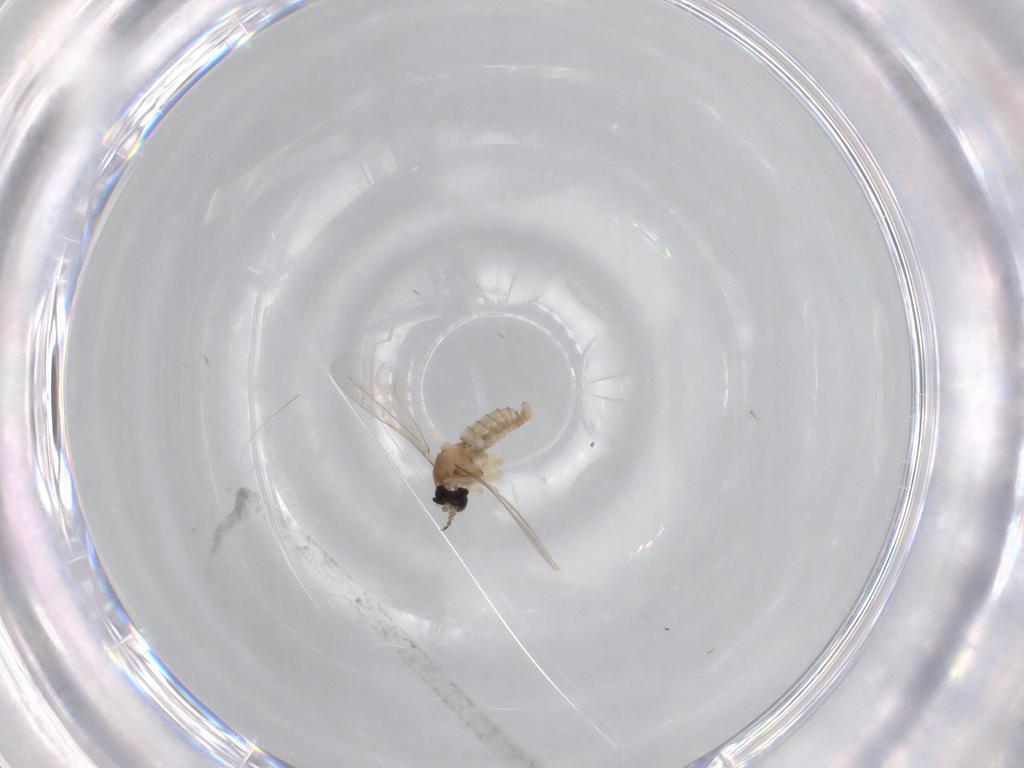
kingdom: Animalia
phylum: Arthropoda
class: Insecta
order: Diptera
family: Cecidomyiidae
